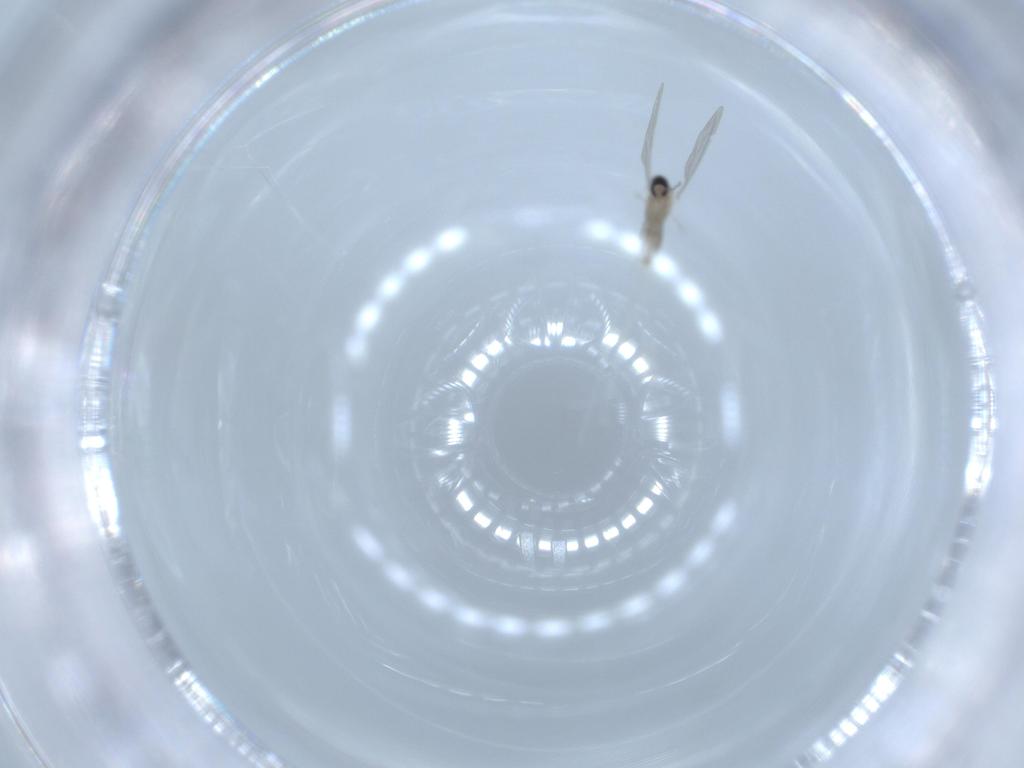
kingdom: Animalia
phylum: Arthropoda
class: Insecta
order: Diptera
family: Cecidomyiidae
